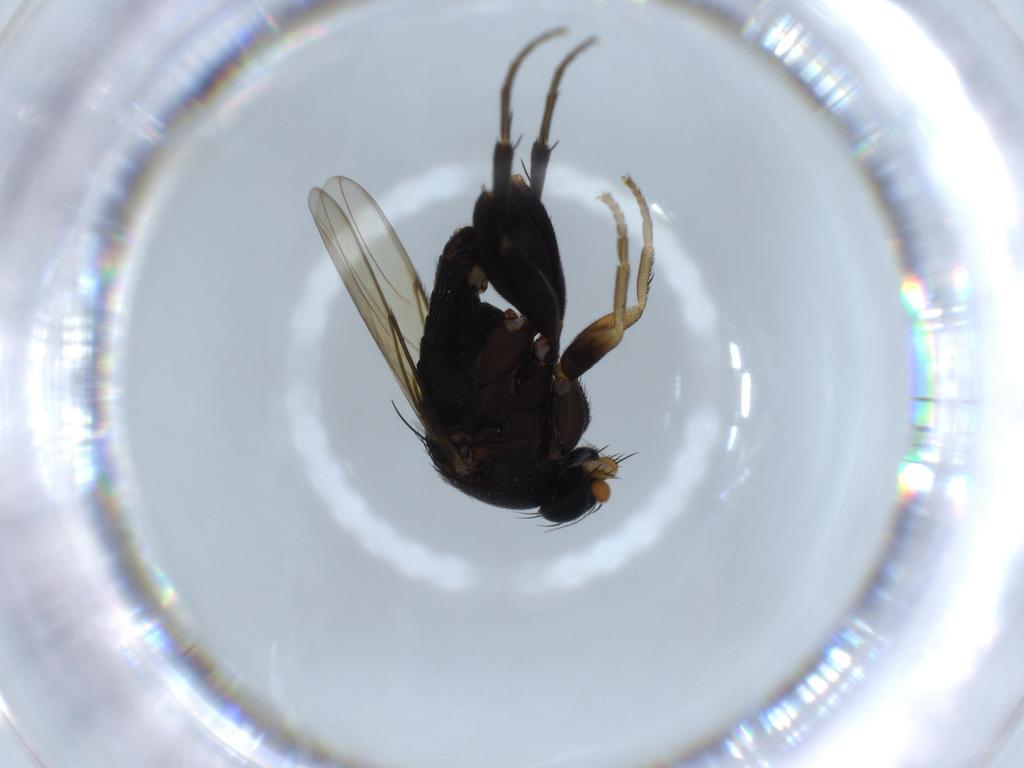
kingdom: Animalia
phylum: Arthropoda
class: Insecta
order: Diptera
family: Phoridae
